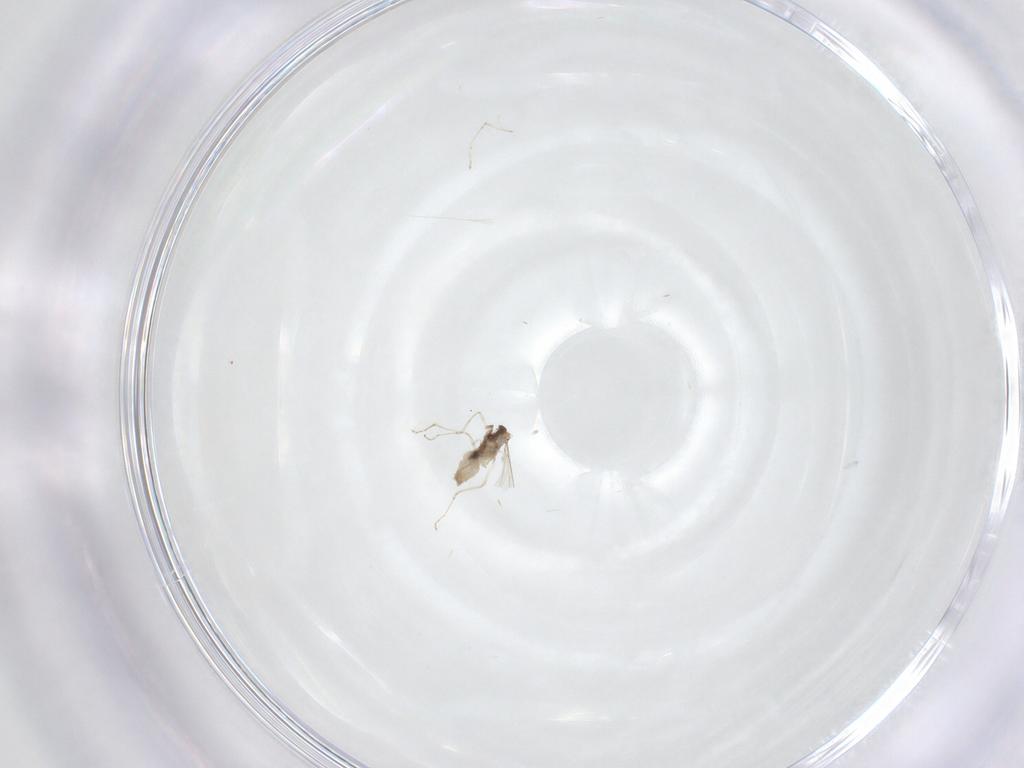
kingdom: Animalia
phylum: Arthropoda
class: Insecta
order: Diptera
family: Cecidomyiidae
